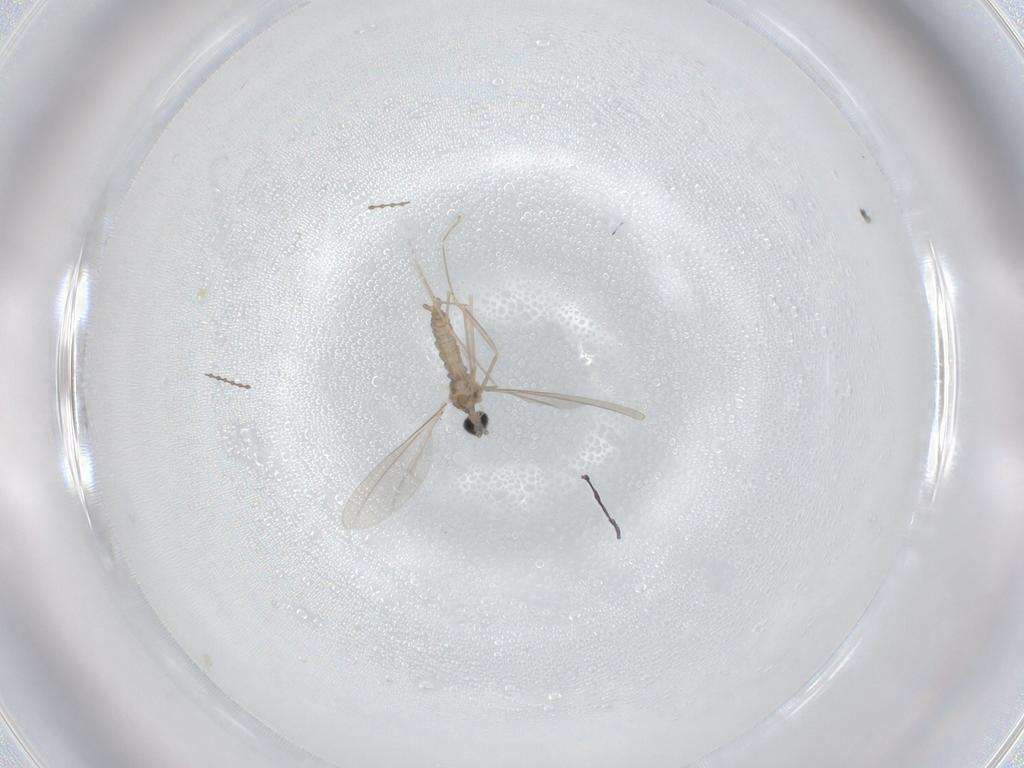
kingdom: Animalia
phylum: Arthropoda
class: Insecta
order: Diptera
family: Cecidomyiidae
